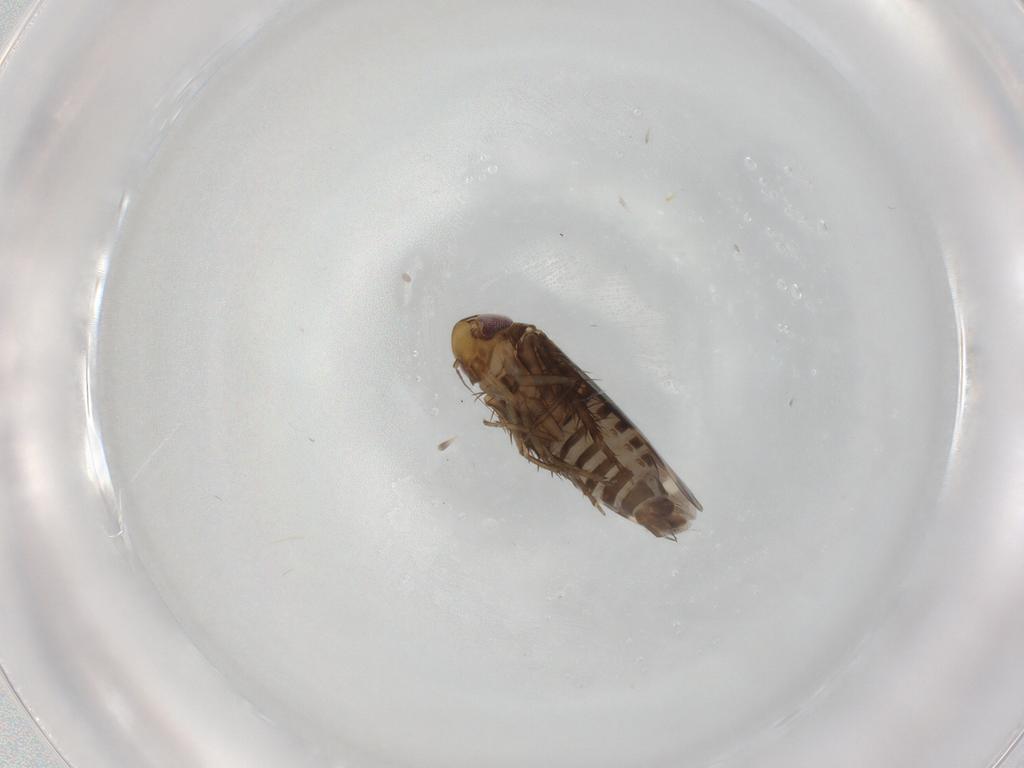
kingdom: Animalia
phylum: Arthropoda
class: Insecta
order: Hemiptera
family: Cicadellidae
